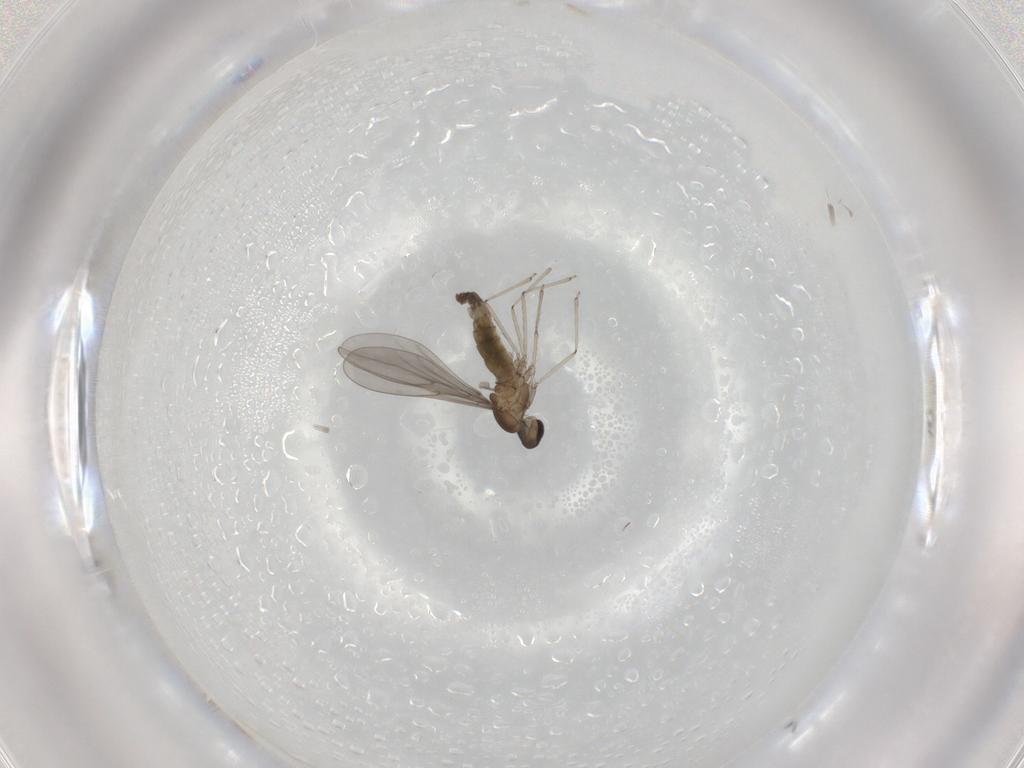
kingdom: Animalia
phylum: Arthropoda
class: Insecta
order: Diptera
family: Cecidomyiidae
